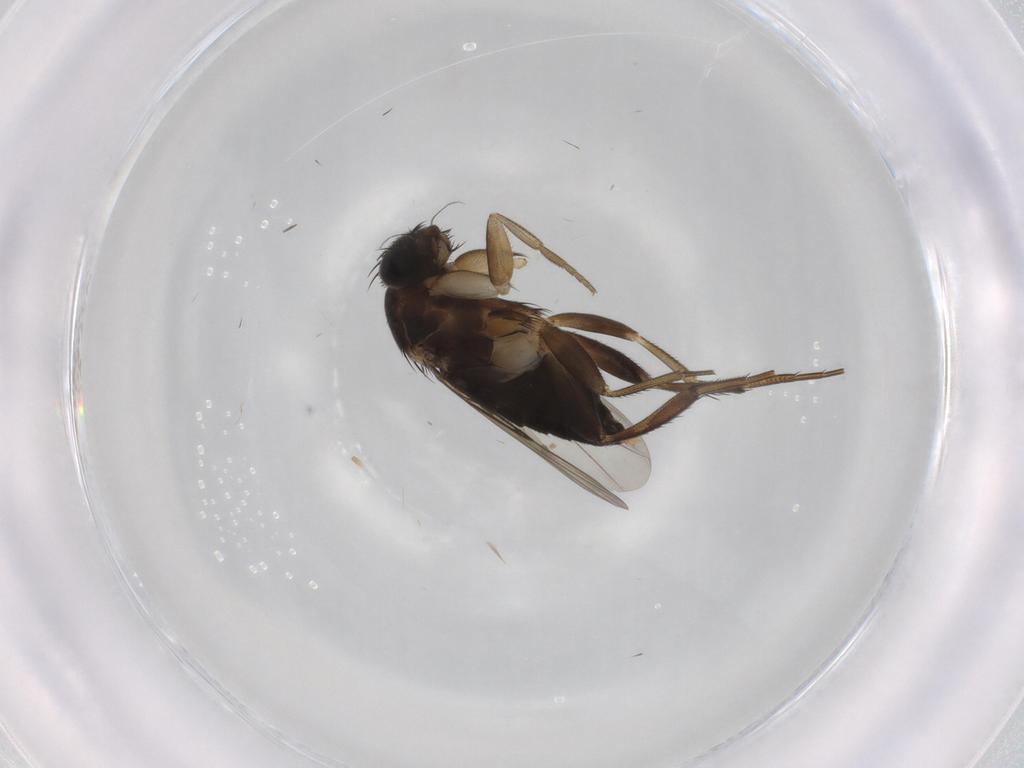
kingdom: Animalia
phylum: Arthropoda
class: Insecta
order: Diptera
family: Phoridae
